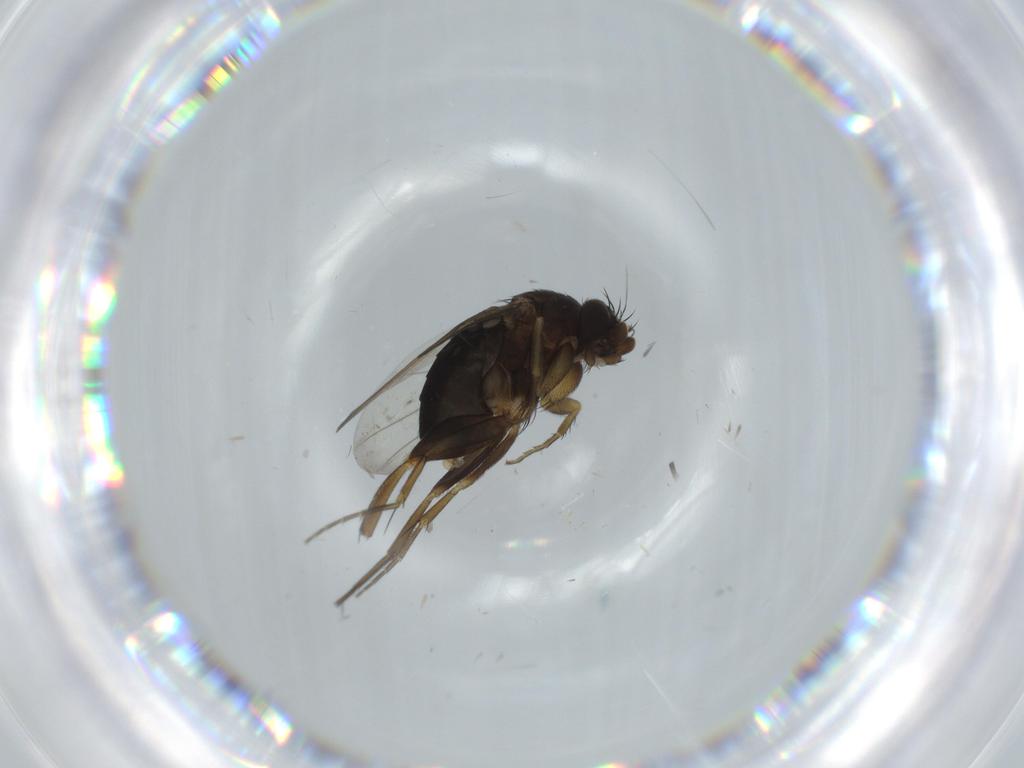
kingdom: Animalia
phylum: Arthropoda
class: Insecta
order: Diptera
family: Phoridae
